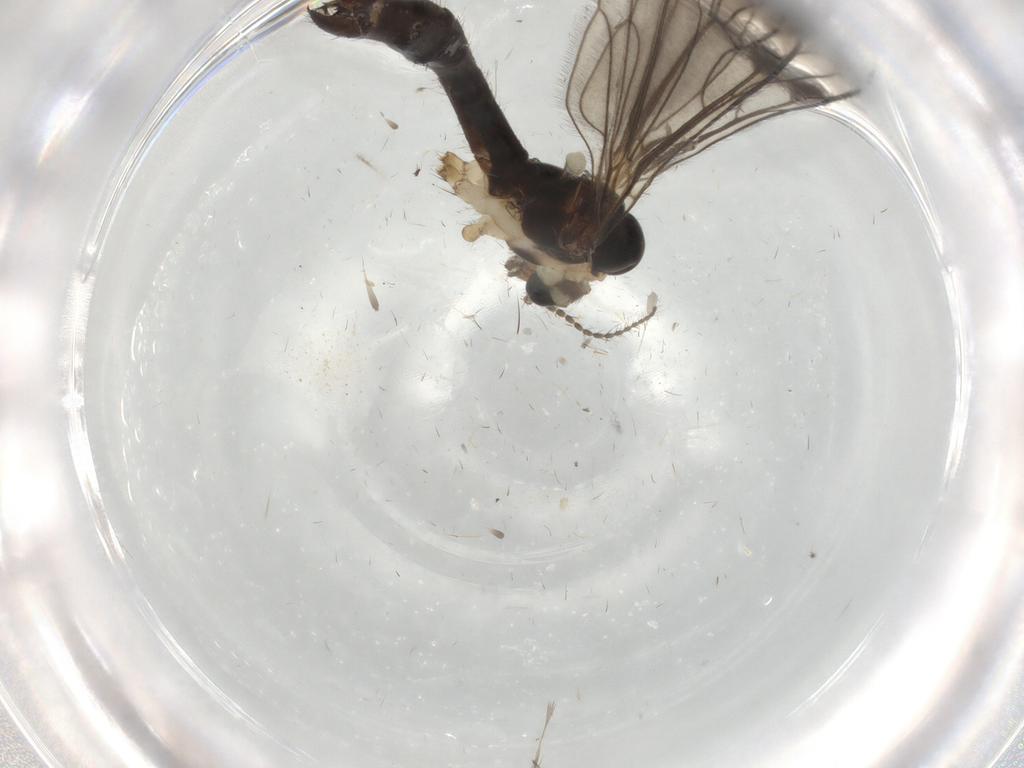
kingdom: Animalia
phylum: Arthropoda
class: Insecta
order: Diptera
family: Limoniidae
